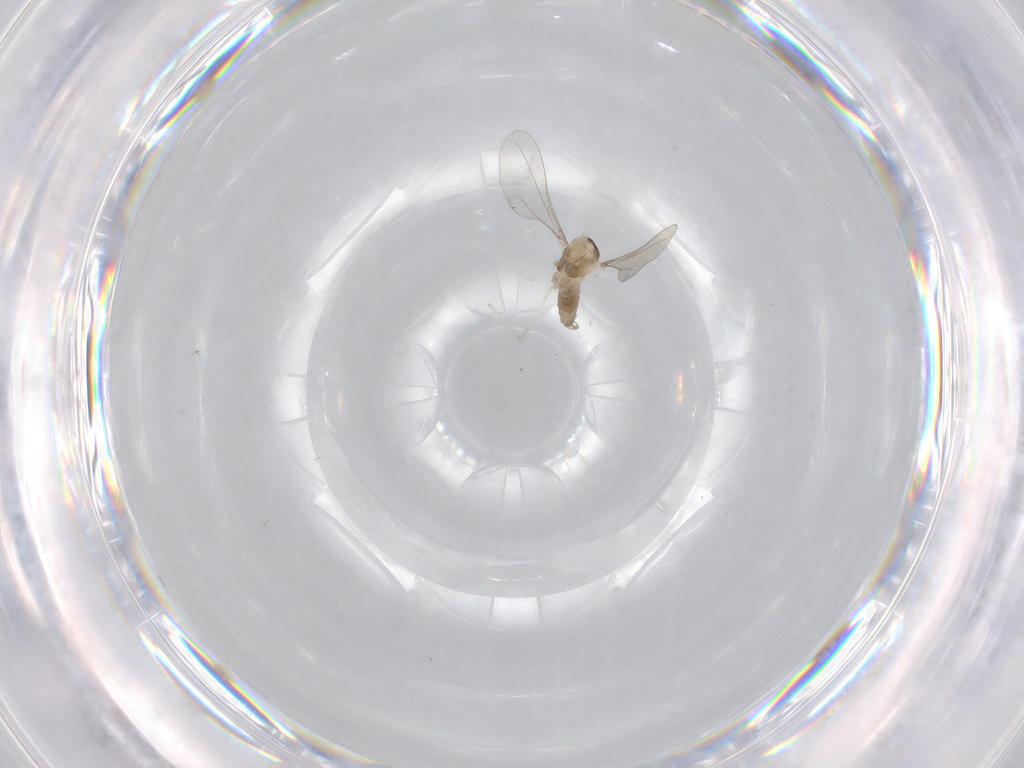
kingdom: Animalia
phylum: Arthropoda
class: Insecta
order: Diptera
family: Cecidomyiidae
